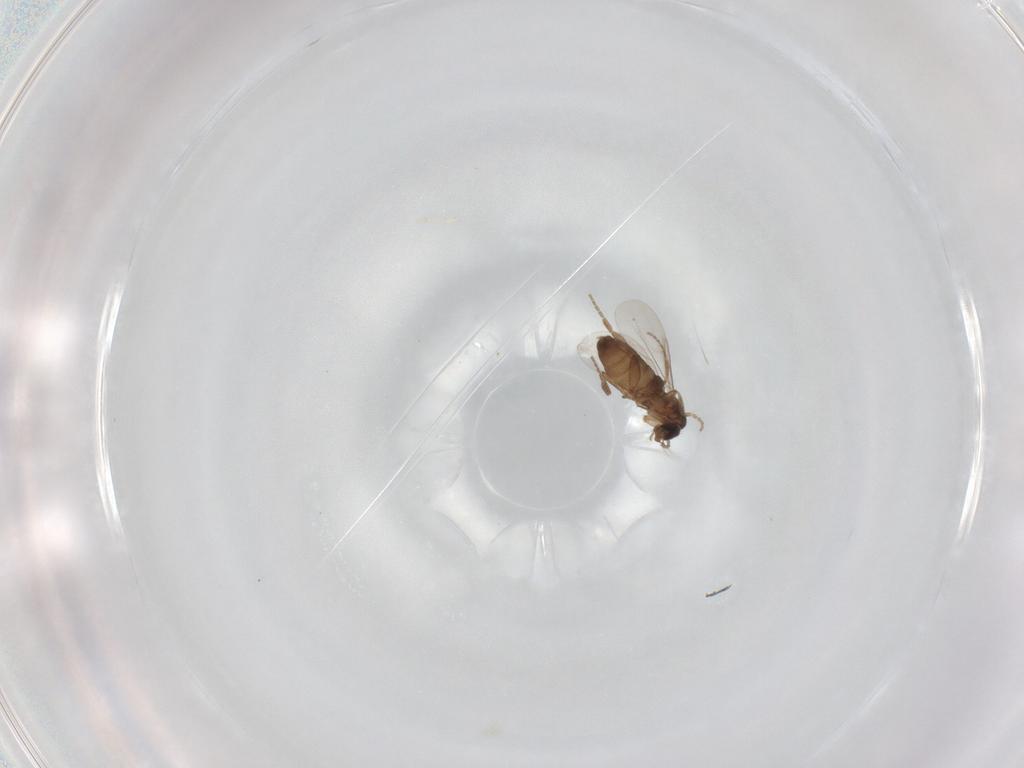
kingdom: Animalia
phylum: Arthropoda
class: Insecta
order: Diptera
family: Phoridae
